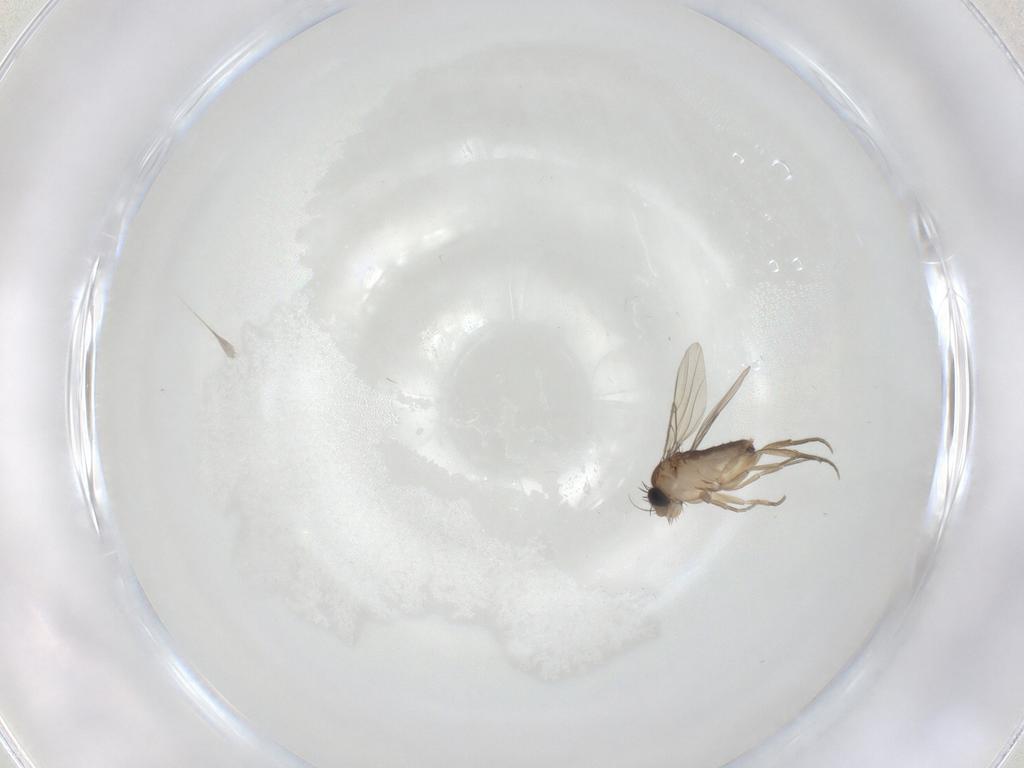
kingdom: Animalia
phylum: Arthropoda
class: Insecta
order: Diptera
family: Phoridae
